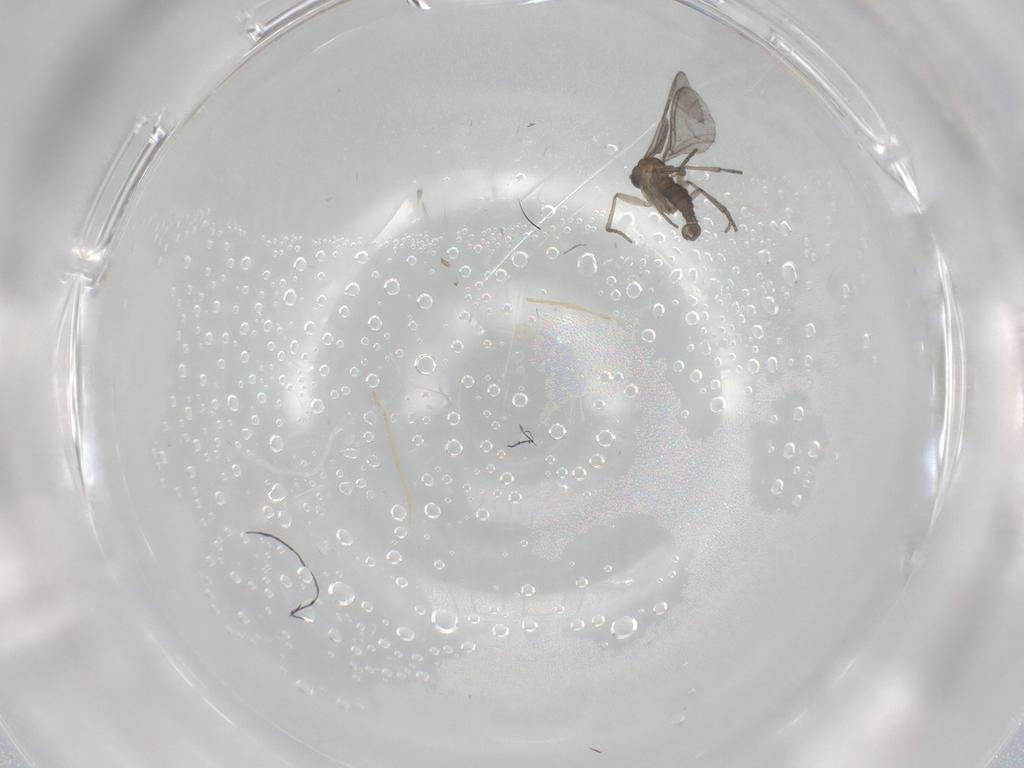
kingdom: Animalia
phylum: Arthropoda
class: Insecta
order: Diptera
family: Sciaridae
